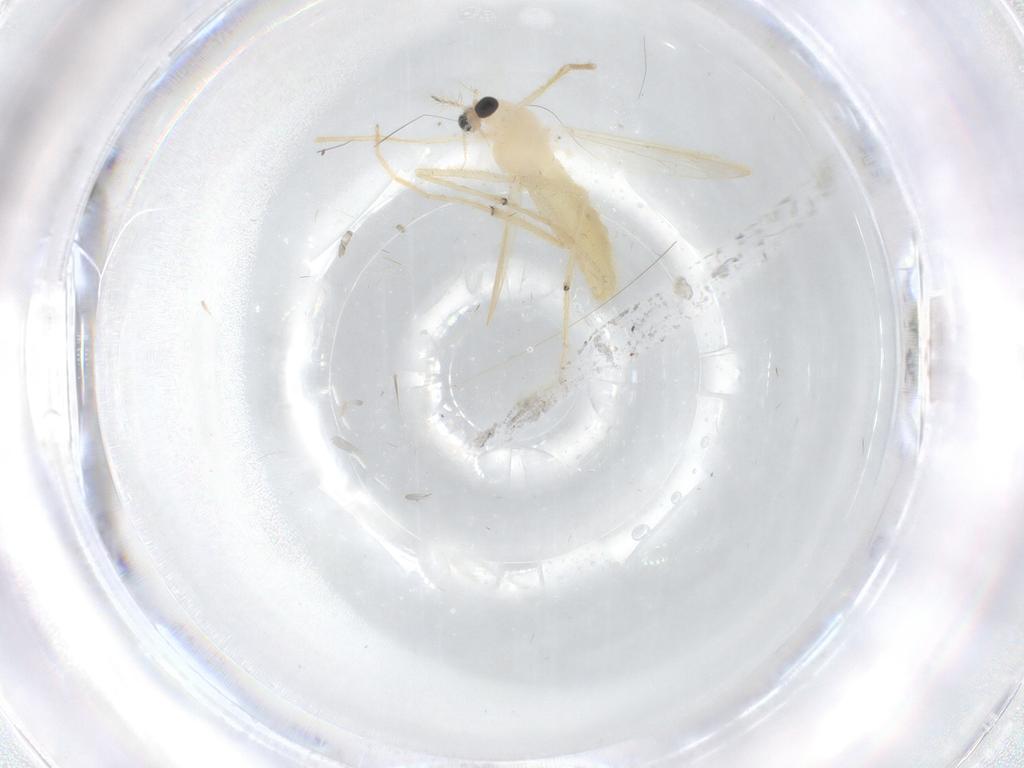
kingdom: Animalia
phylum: Arthropoda
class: Insecta
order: Diptera
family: Chironomidae
